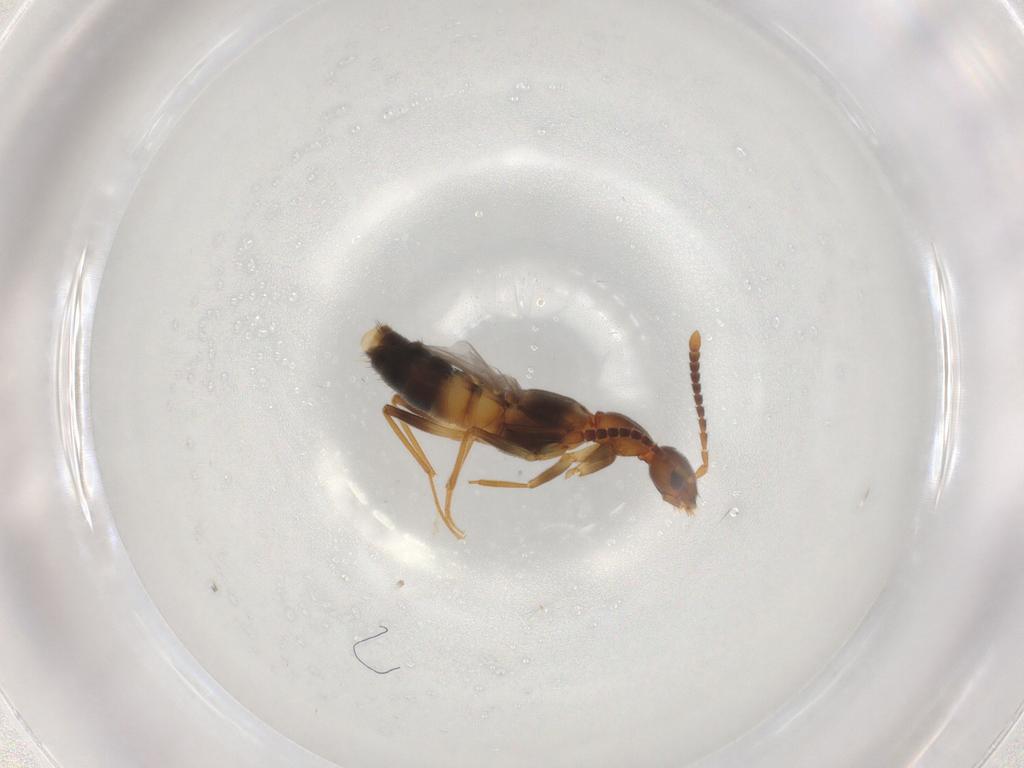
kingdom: Animalia
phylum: Arthropoda
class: Insecta
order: Coleoptera
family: Staphylinidae
